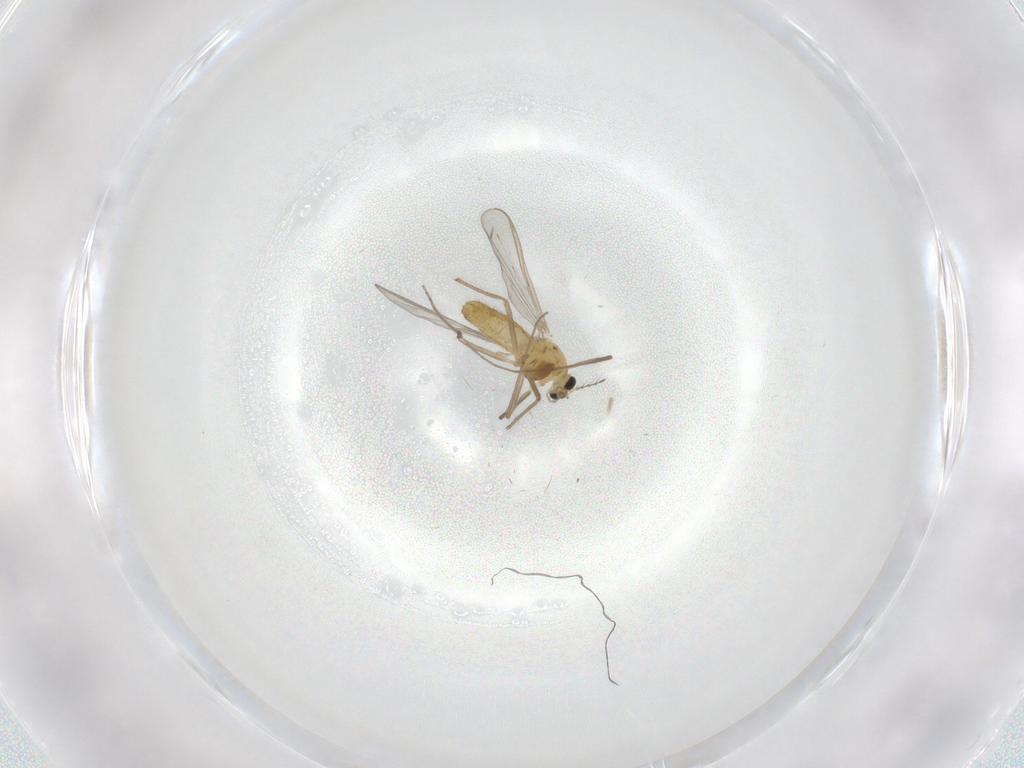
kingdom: Animalia
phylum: Arthropoda
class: Insecta
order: Diptera
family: Chironomidae
